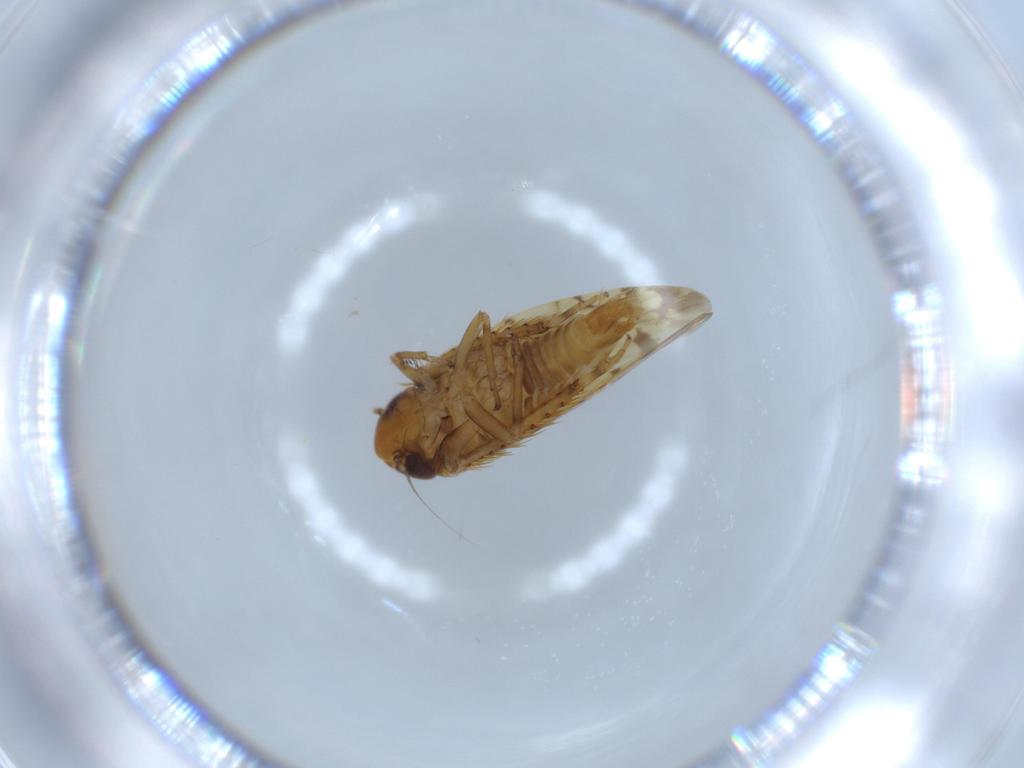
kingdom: Animalia
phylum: Arthropoda
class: Insecta
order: Hemiptera
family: Cicadellidae
